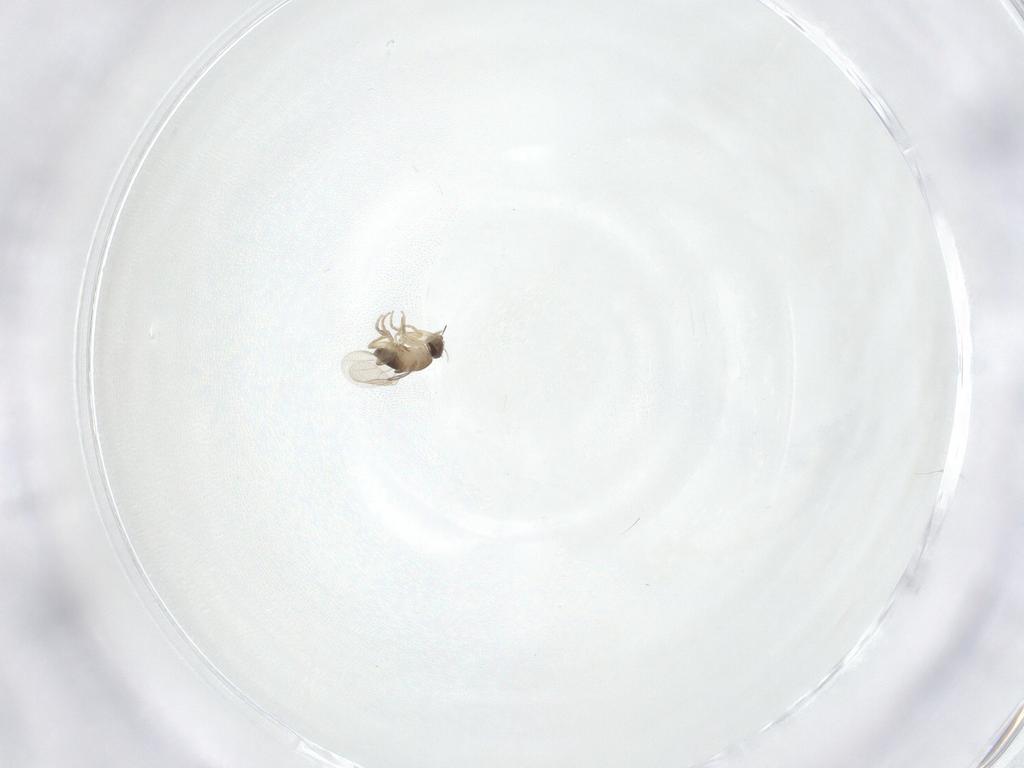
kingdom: Animalia
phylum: Arthropoda
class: Insecta
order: Diptera
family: Phoridae
